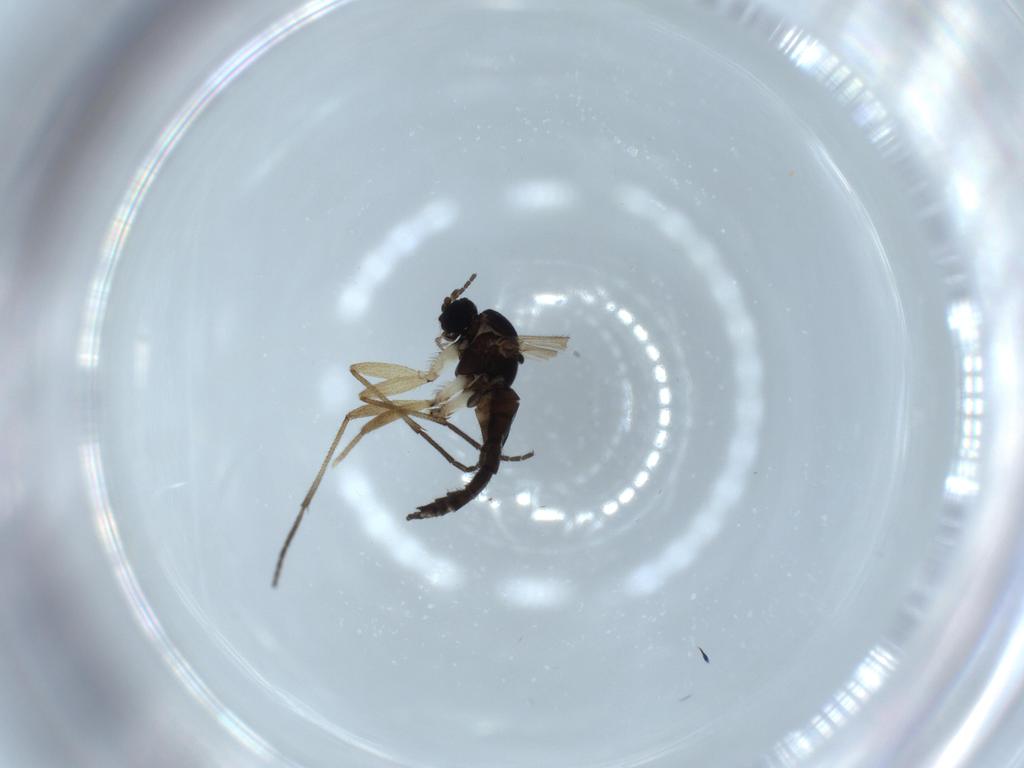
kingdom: Animalia
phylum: Arthropoda
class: Insecta
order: Diptera
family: Sciaridae
